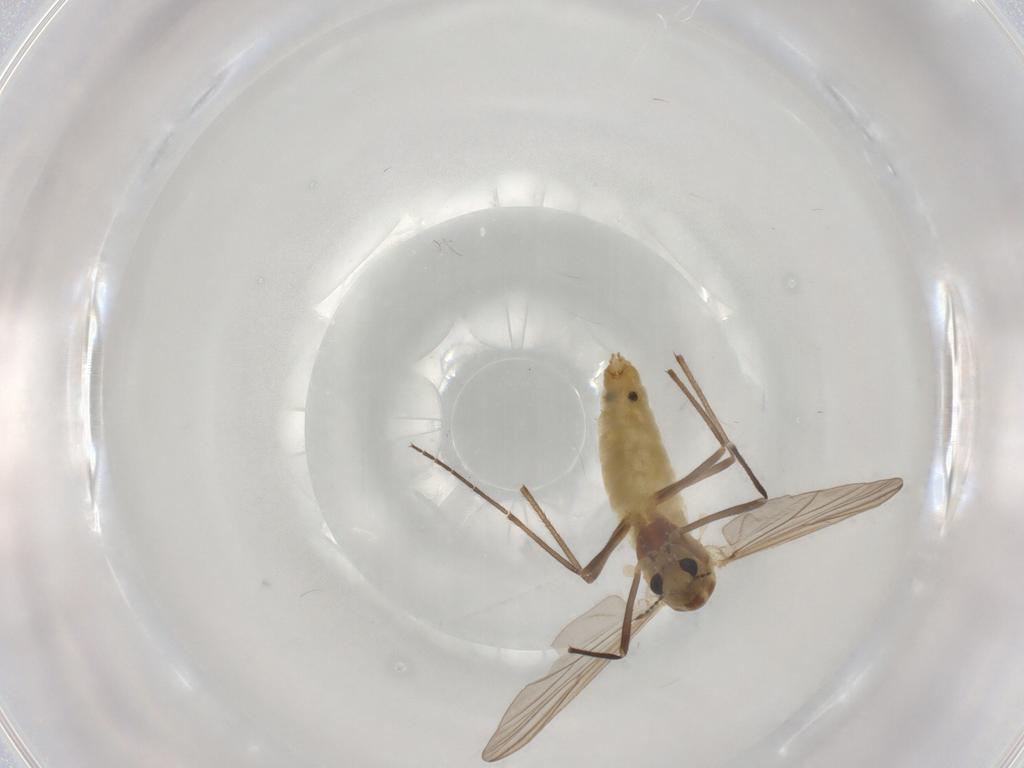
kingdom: Animalia
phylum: Arthropoda
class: Insecta
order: Diptera
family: Chironomidae
